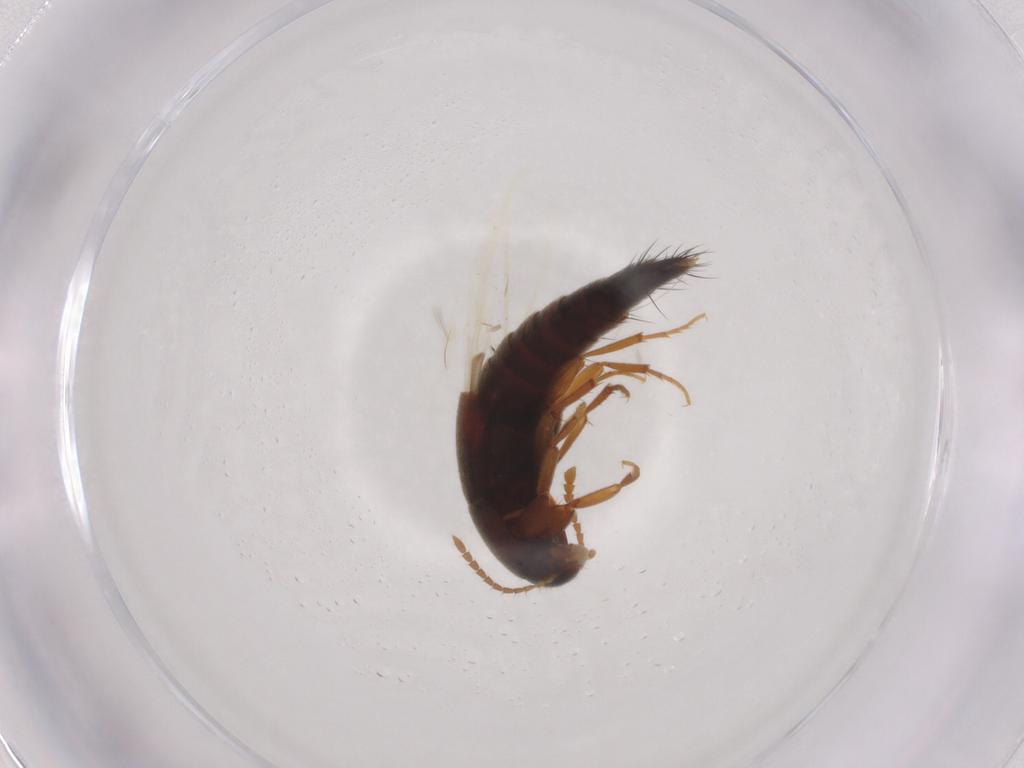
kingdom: Animalia
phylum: Arthropoda
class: Insecta
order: Coleoptera
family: Staphylinidae
